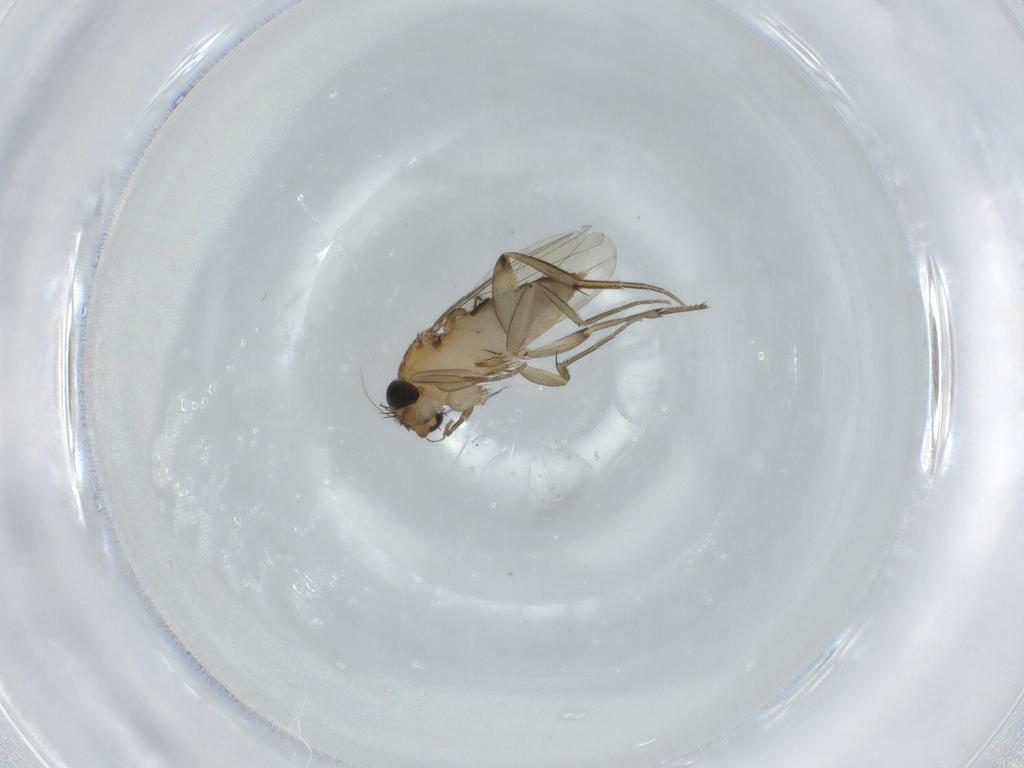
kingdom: Animalia
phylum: Arthropoda
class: Insecta
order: Diptera
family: Phoridae
